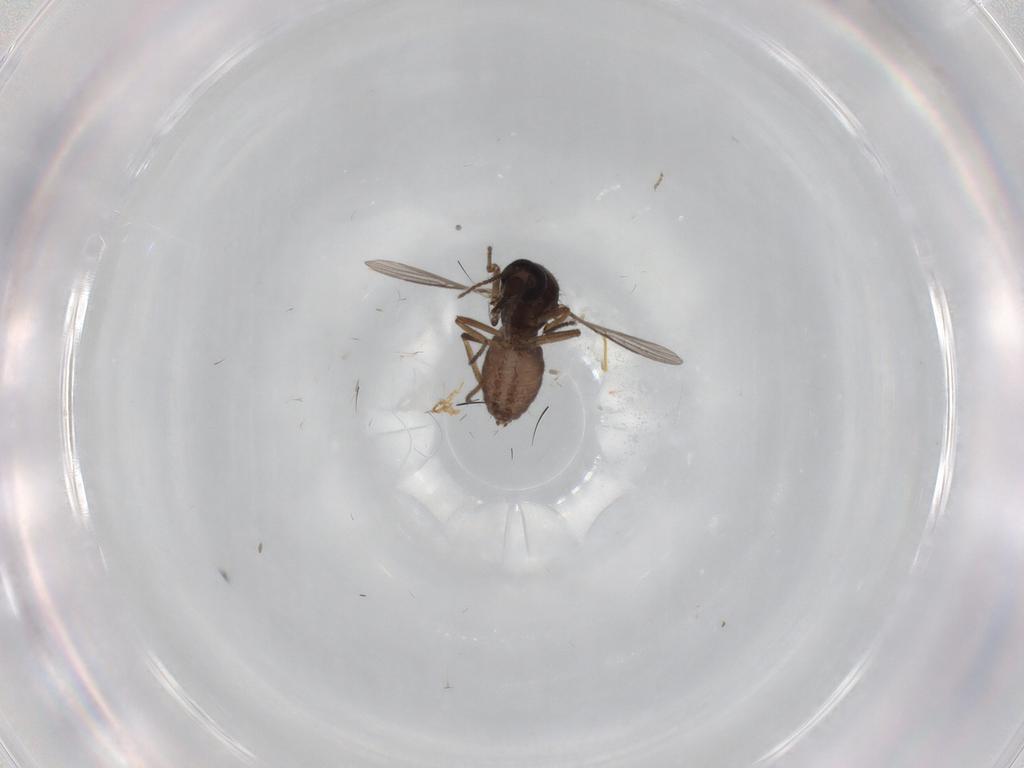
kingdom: Animalia
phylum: Arthropoda
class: Insecta
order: Diptera
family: Ceratopogonidae
